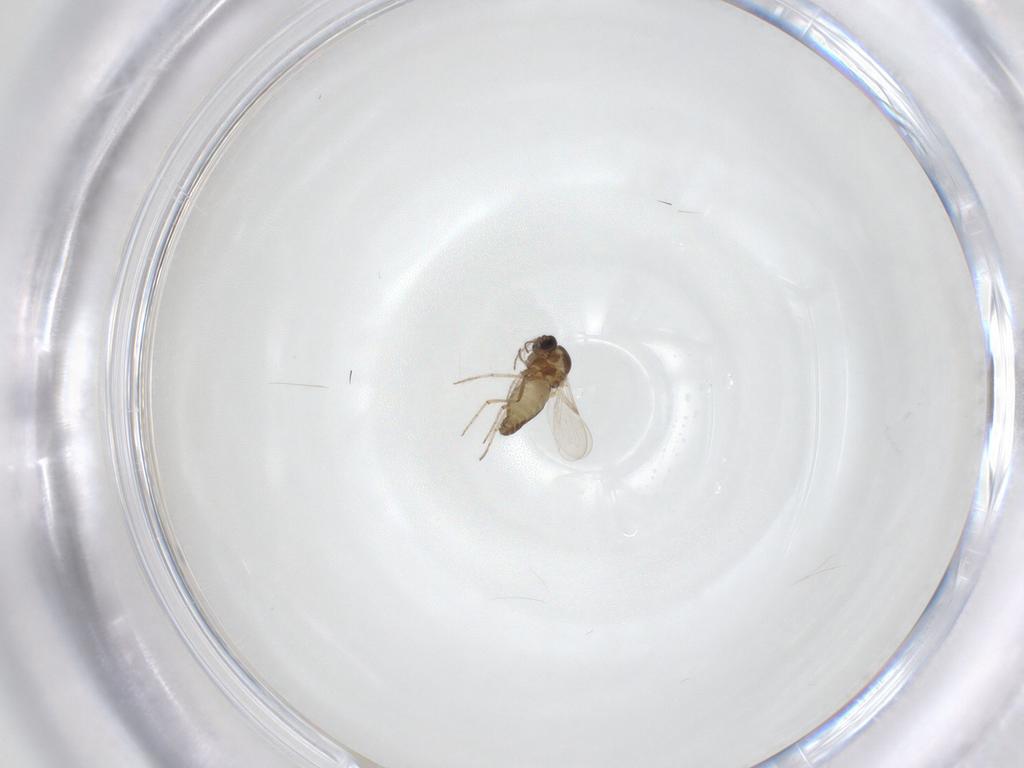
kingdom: Animalia
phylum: Arthropoda
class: Insecta
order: Diptera
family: Ceratopogonidae
